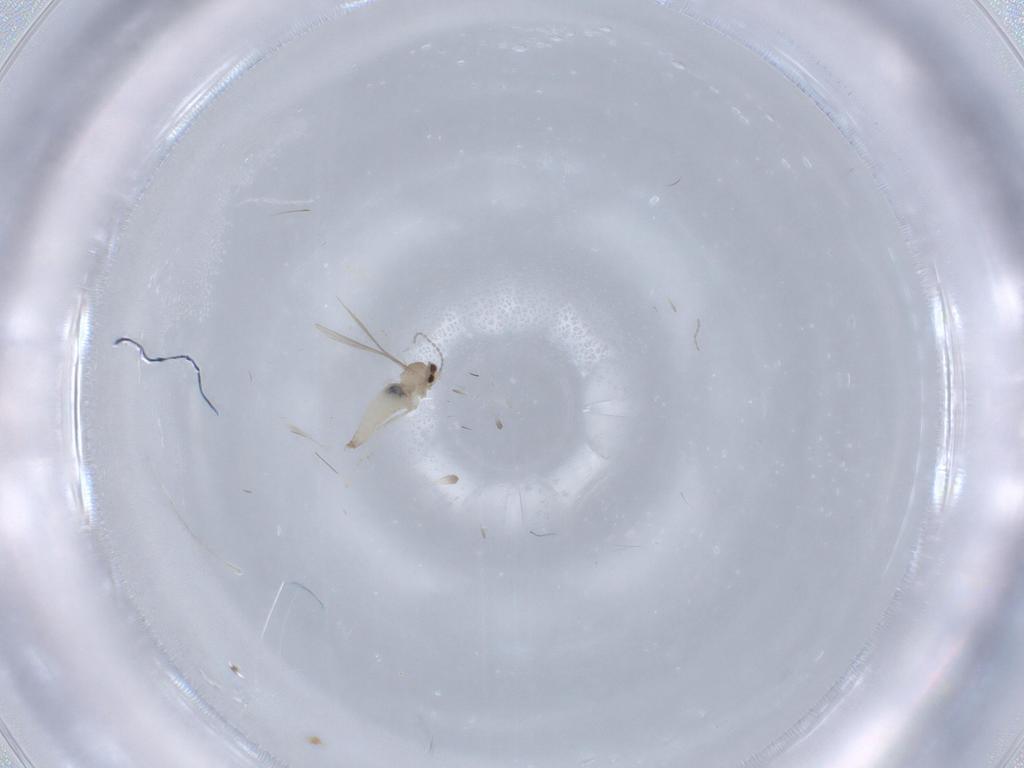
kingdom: Animalia
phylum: Arthropoda
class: Insecta
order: Diptera
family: Cecidomyiidae
